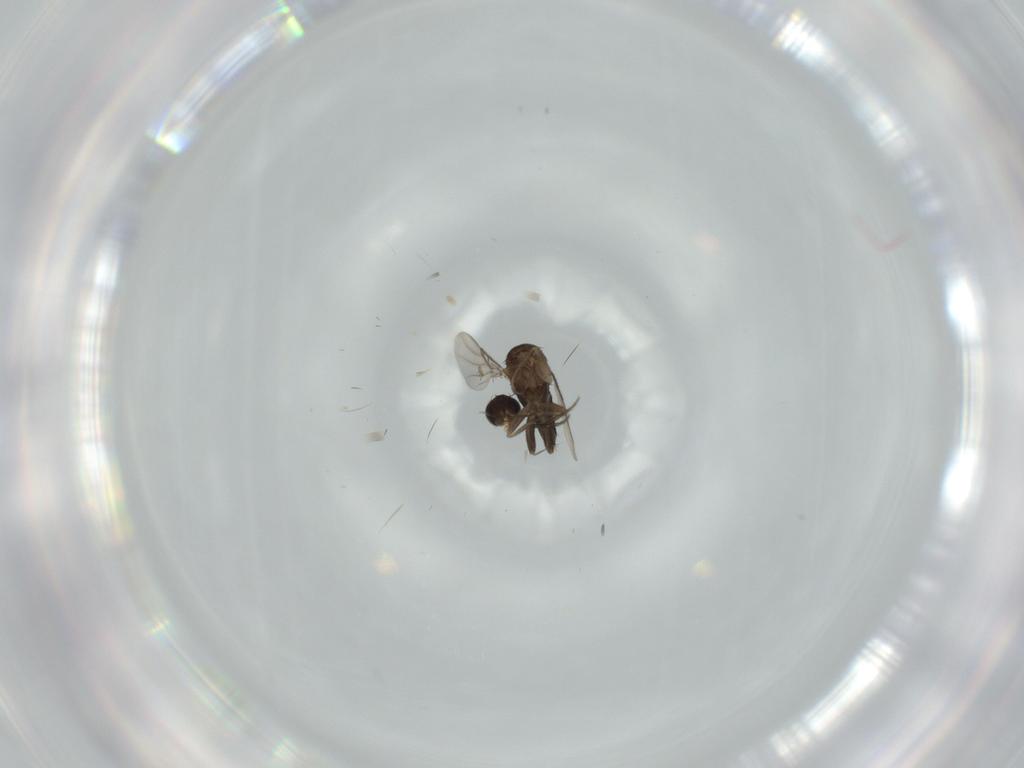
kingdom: Animalia
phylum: Arthropoda
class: Insecta
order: Diptera
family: Phoridae
